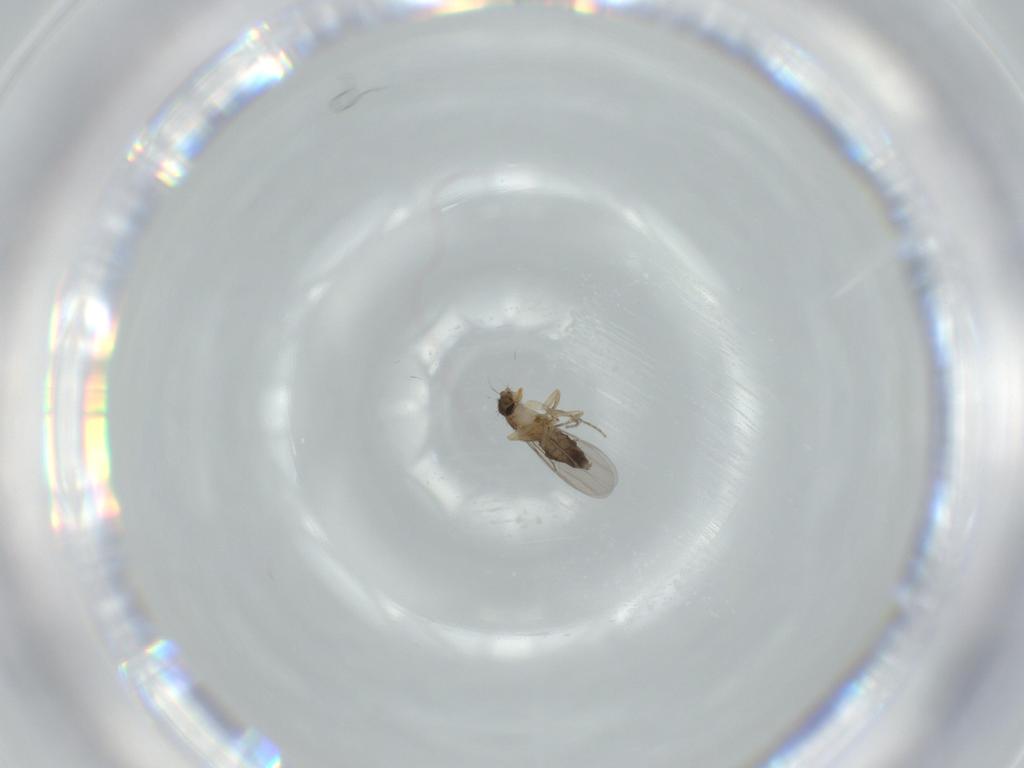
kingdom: Animalia
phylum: Arthropoda
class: Insecta
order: Diptera
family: Phoridae
